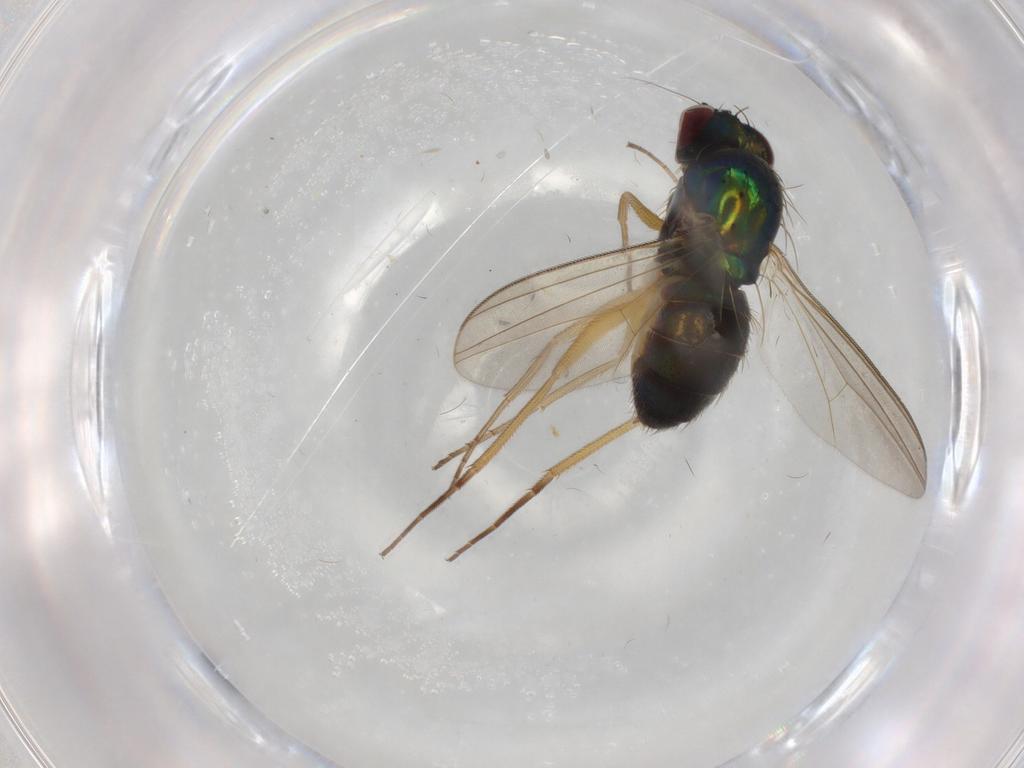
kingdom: Animalia
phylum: Arthropoda
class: Insecta
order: Diptera
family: Dolichopodidae
